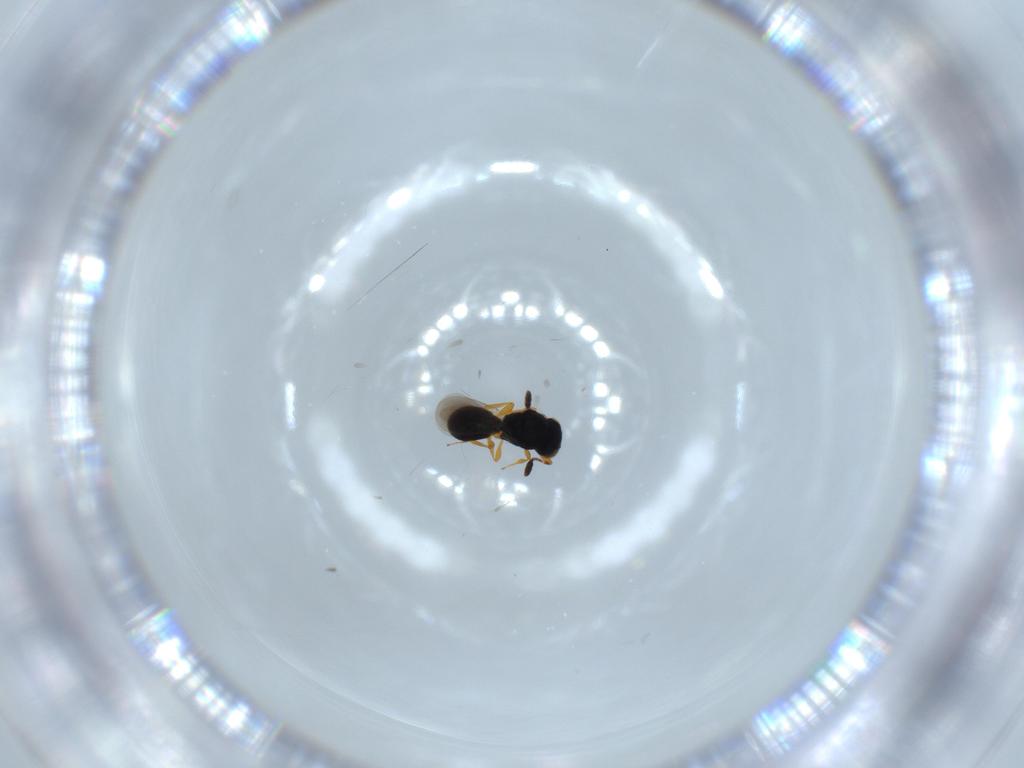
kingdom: Animalia
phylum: Arthropoda
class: Insecta
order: Hymenoptera
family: Platygastridae
